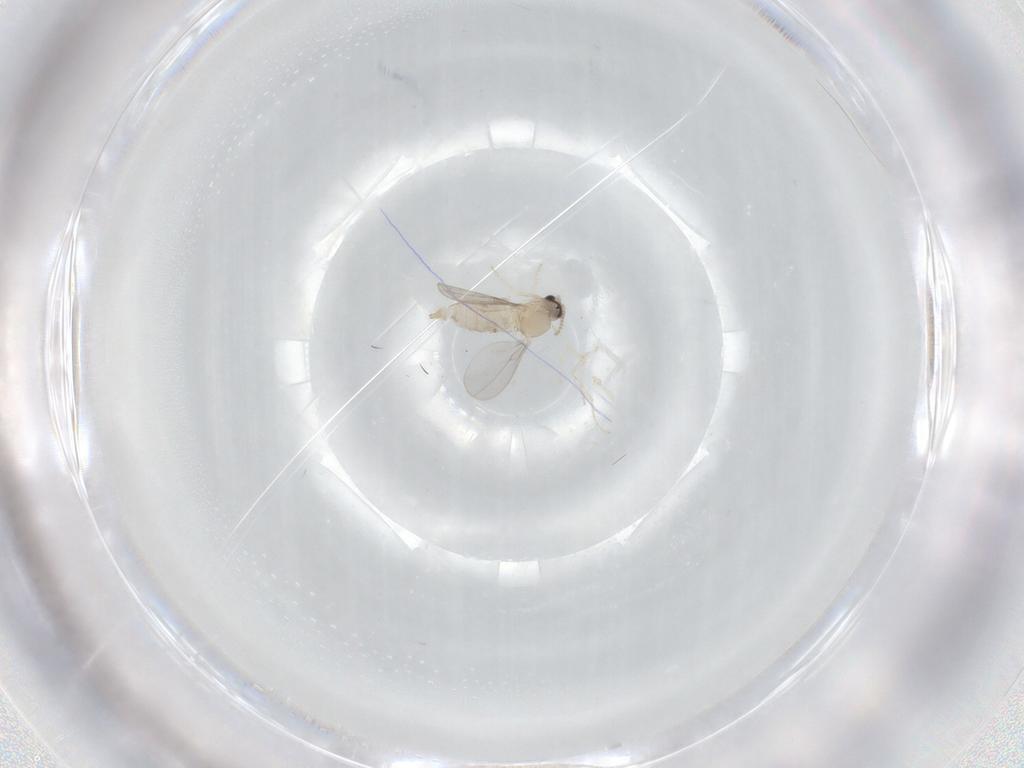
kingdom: Animalia
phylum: Arthropoda
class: Insecta
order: Diptera
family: Cecidomyiidae
